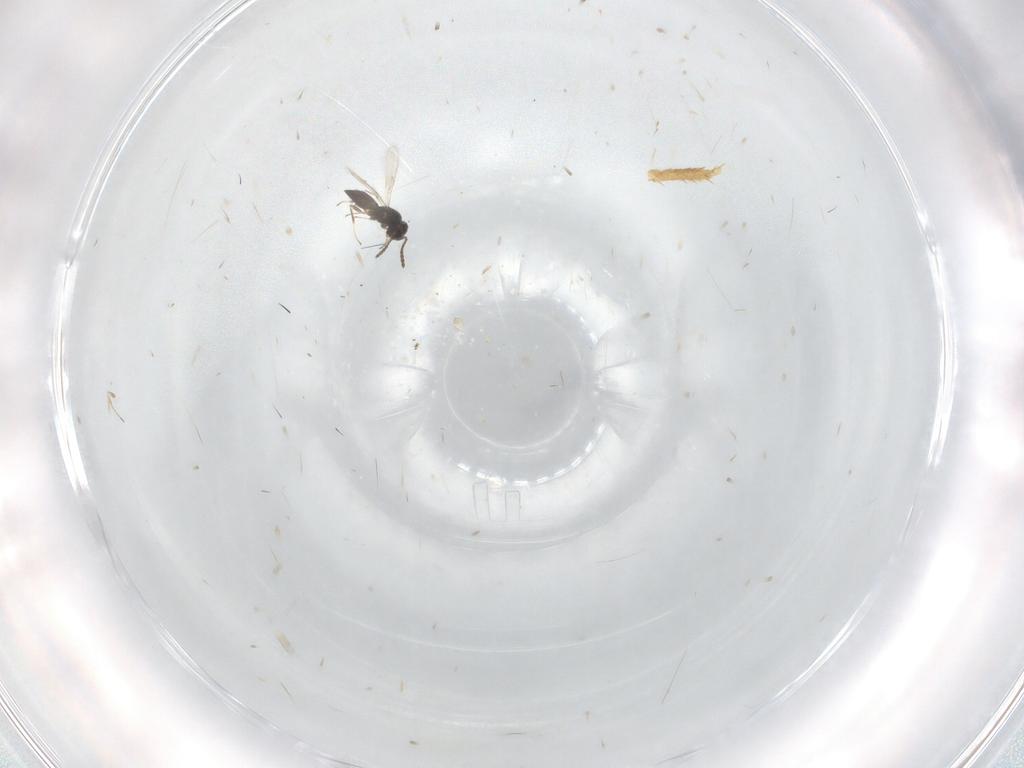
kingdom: Animalia
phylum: Arthropoda
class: Insecta
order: Hymenoptera
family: Scelionidae
